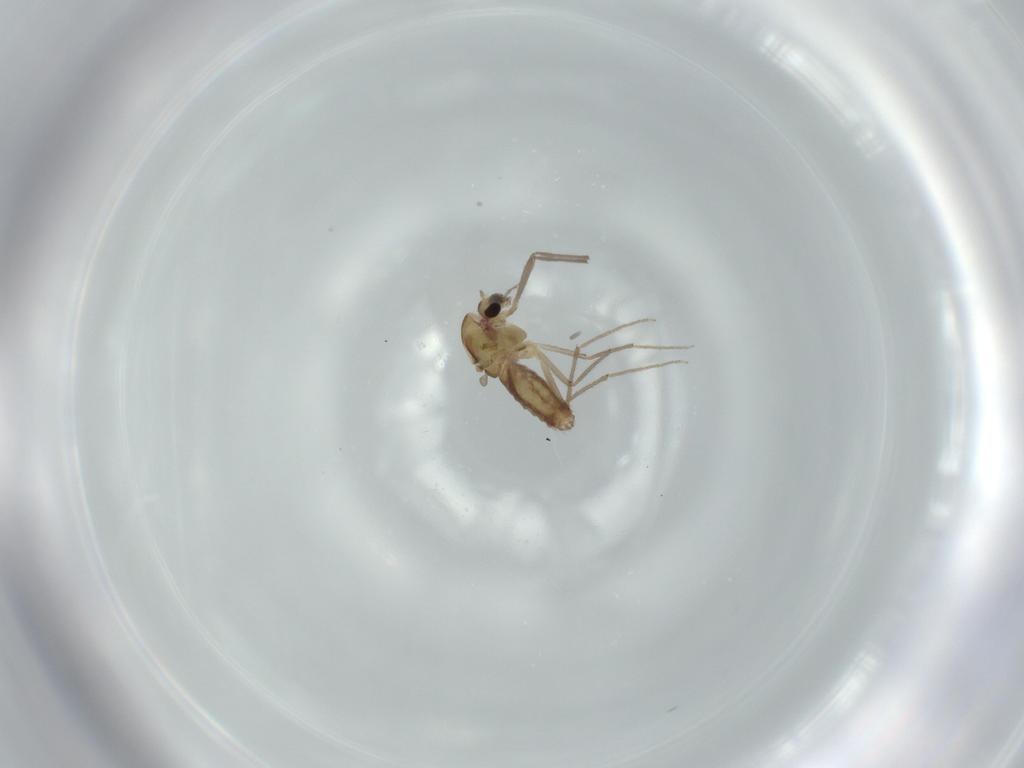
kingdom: Animalia
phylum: Arthropoda
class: Insecta
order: Diptera
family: Chironomidae
